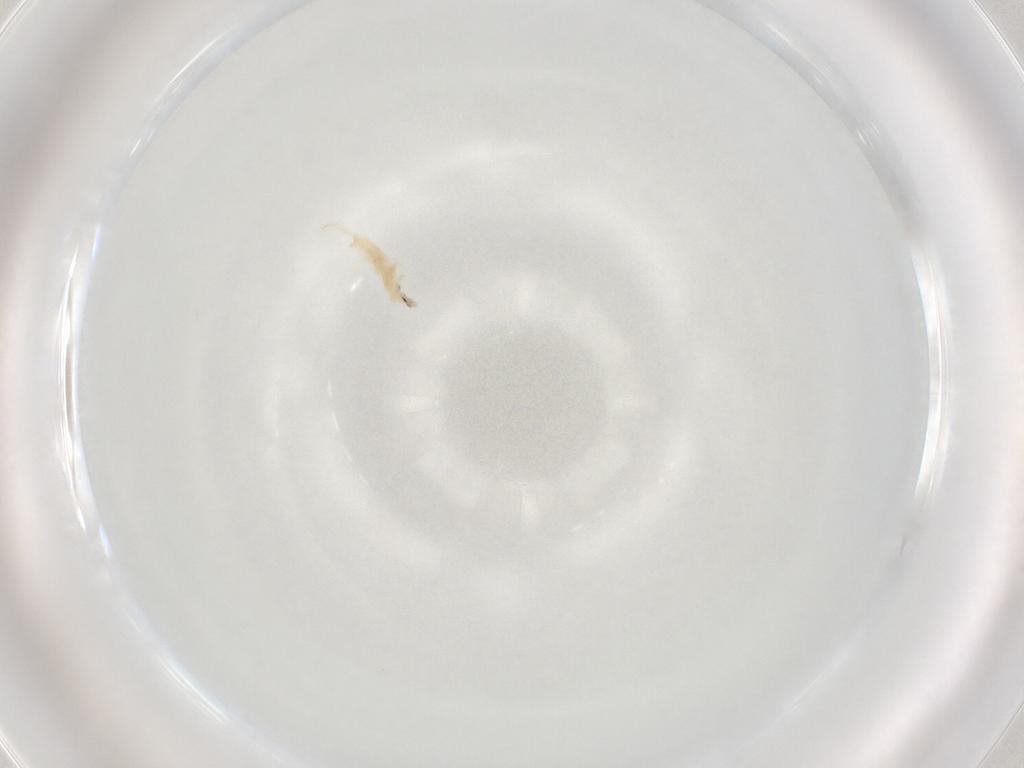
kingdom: Animalia
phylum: Arthropoda
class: Collembola
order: Entomobryomorpha
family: Entomobryidae
